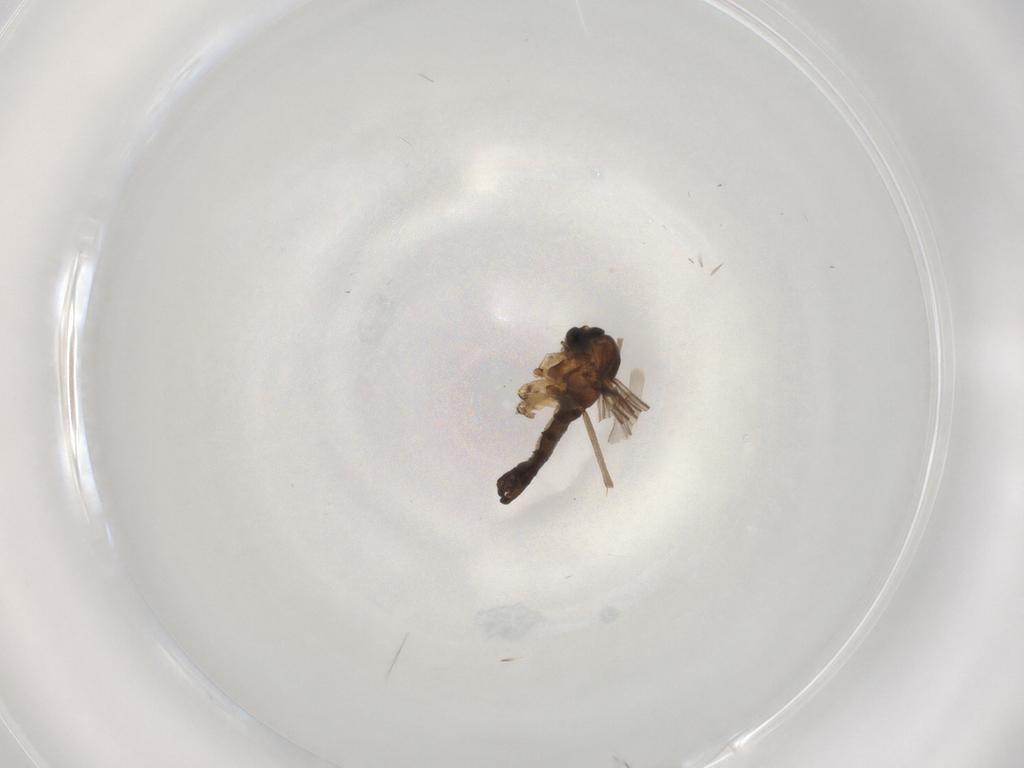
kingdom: Animalia
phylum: Arthropoda
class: Insecta
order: Diptera
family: Sciaridae
